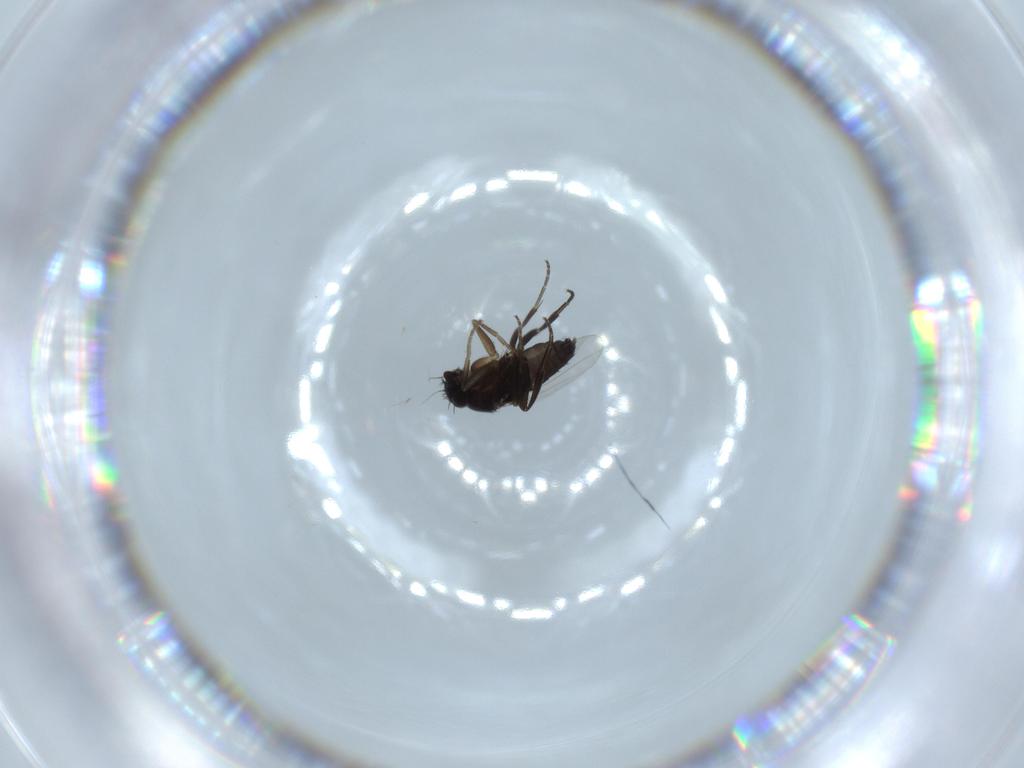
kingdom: Animalia
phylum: Arthropoda
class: Insecta
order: Diptera
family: Phoridae
